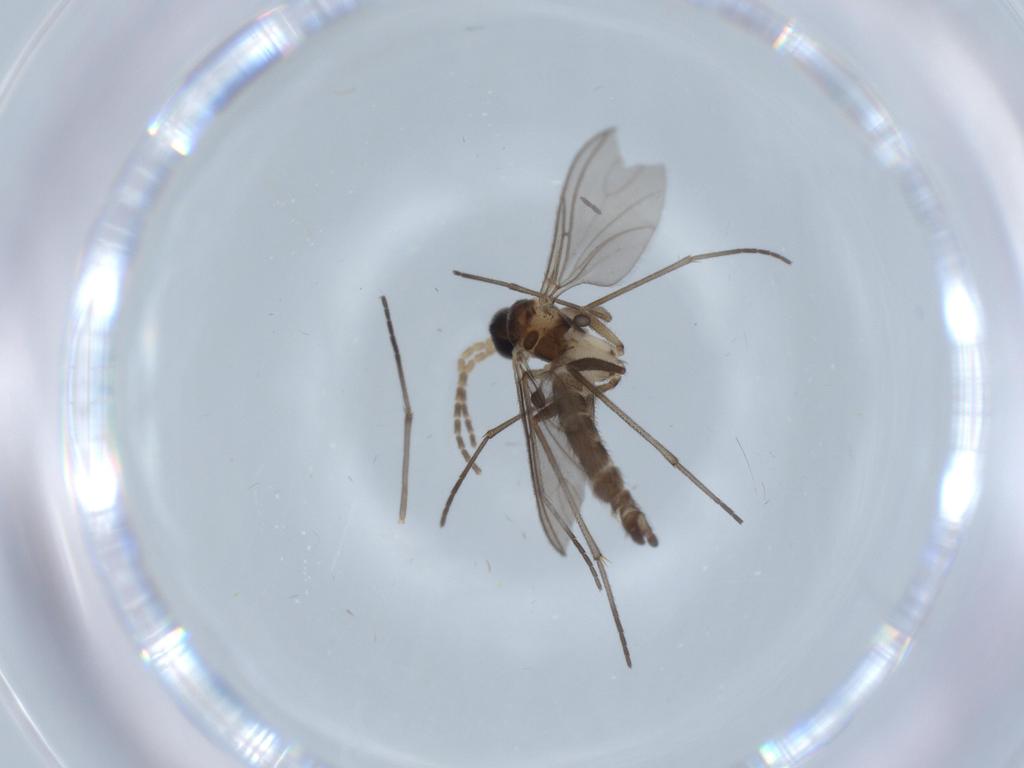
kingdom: Animalia
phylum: Arthropoda
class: Insecta
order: Diptera
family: Sciaridae
